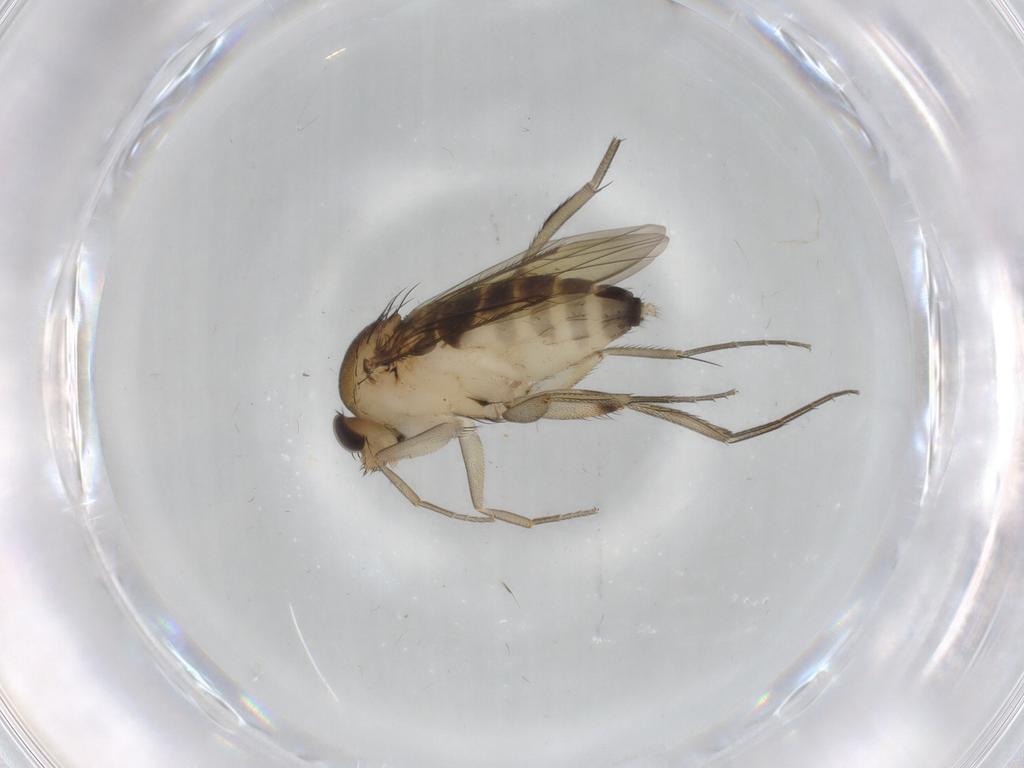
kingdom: Animalia
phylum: Arthropoda
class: Insecta
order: Diptera
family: Phoridae
